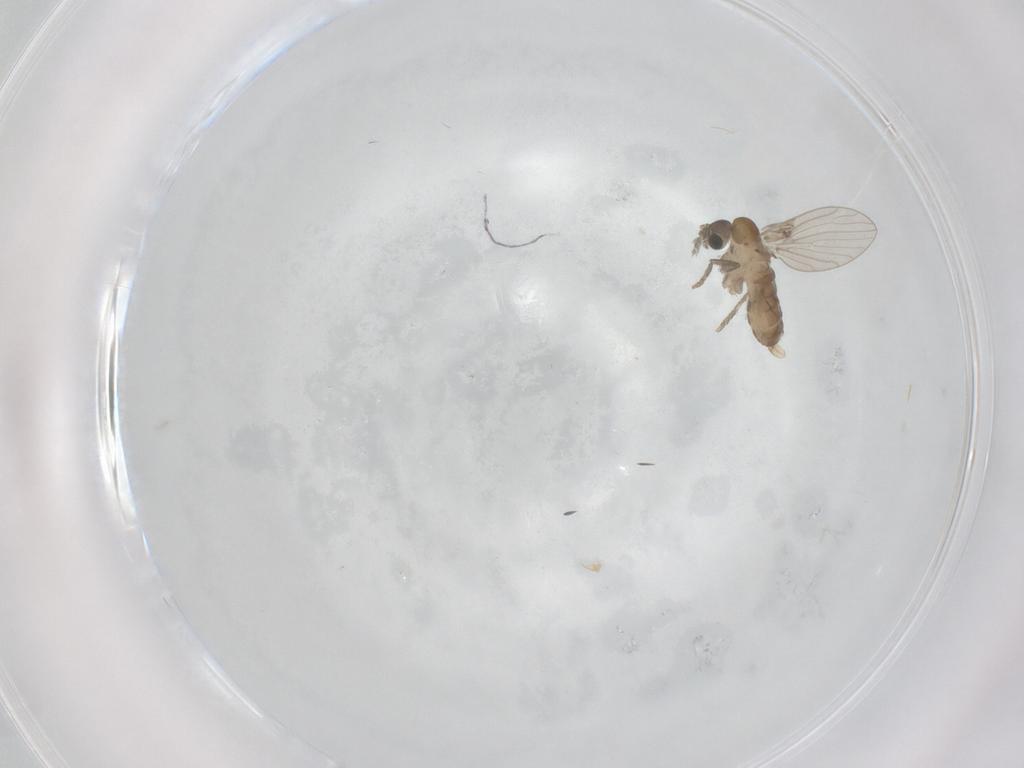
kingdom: Animalia
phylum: Arthropoda
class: Insecta
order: Diptera
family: Psychodidae
